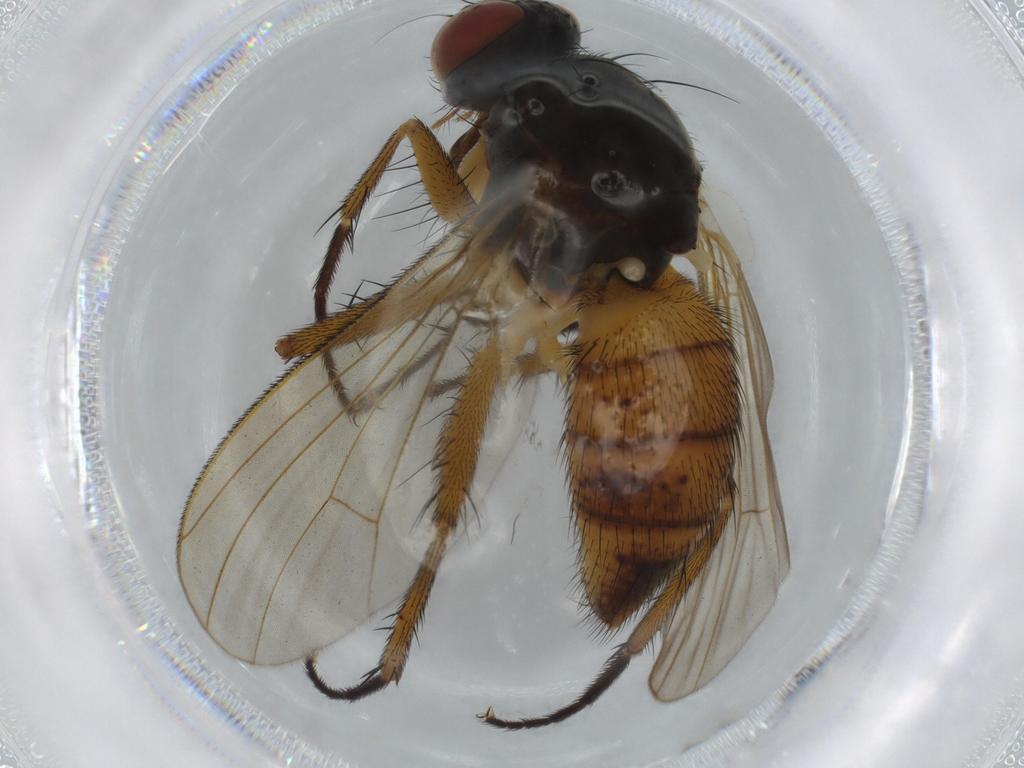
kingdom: Animalia
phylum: Arthropoda
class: Insecta
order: Diptera
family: Muscidae
